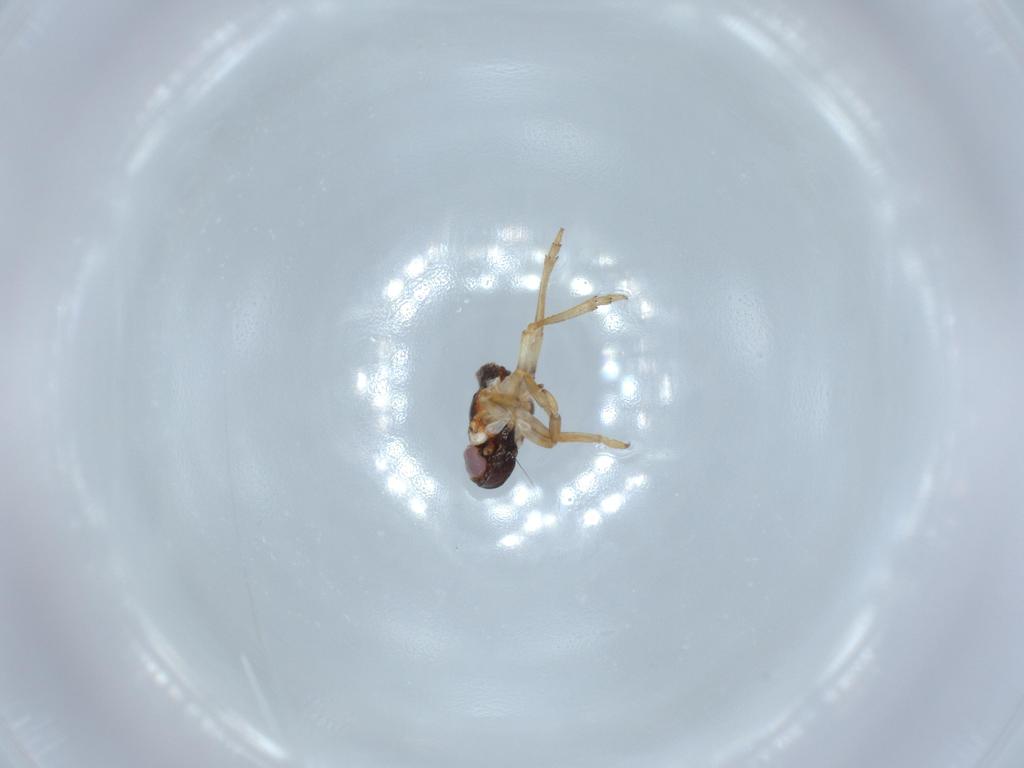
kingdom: Animalia
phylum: Arthropoda
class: Insecta
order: Hemiptera
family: Issidae
